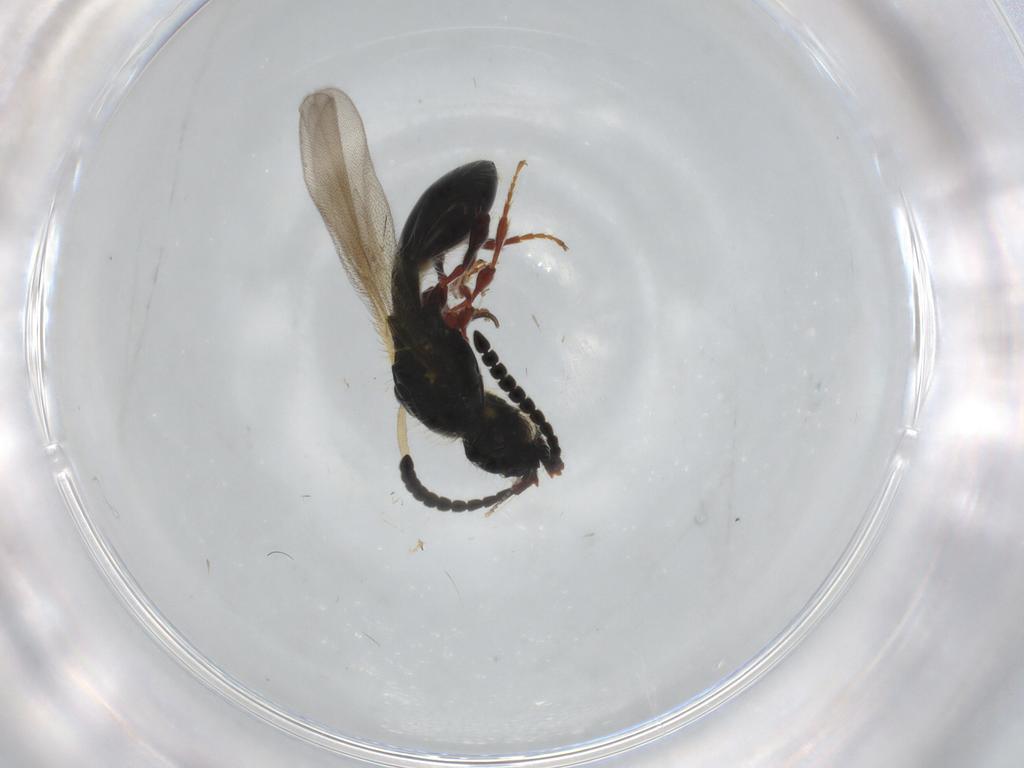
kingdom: Animalia
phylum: Arthropoda
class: Insecta
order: Hymenoptera
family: Diapriidae
